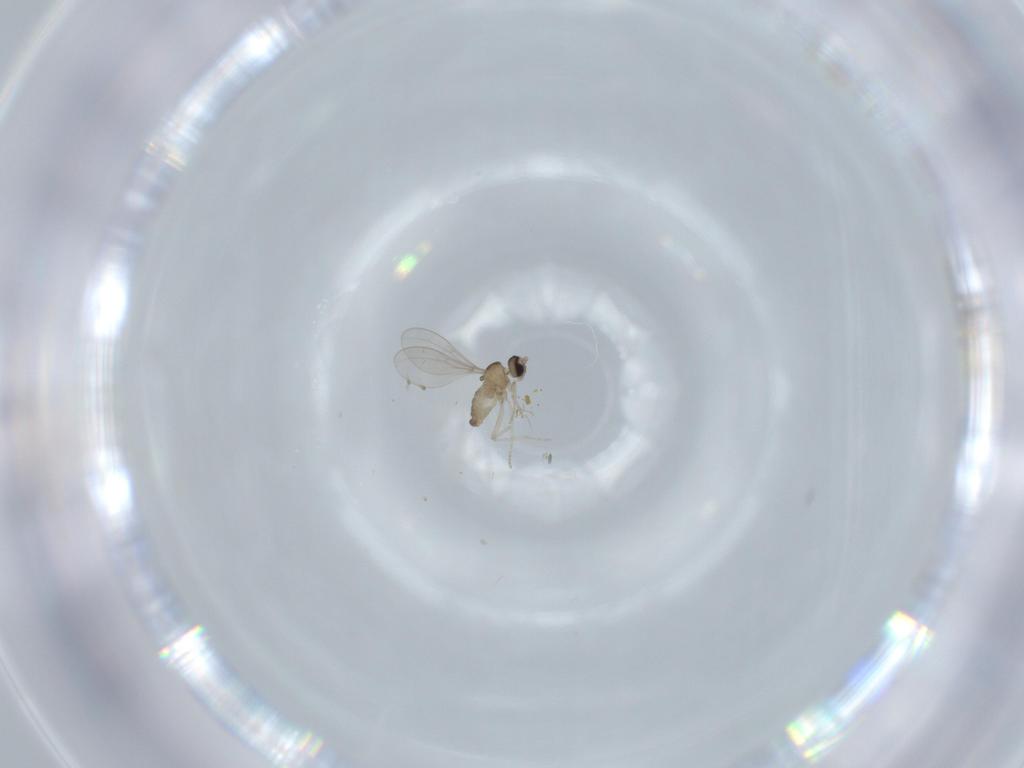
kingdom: Animalia
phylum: Arthropoda
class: Insecta
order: Diptera
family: Cecidomyiidae
